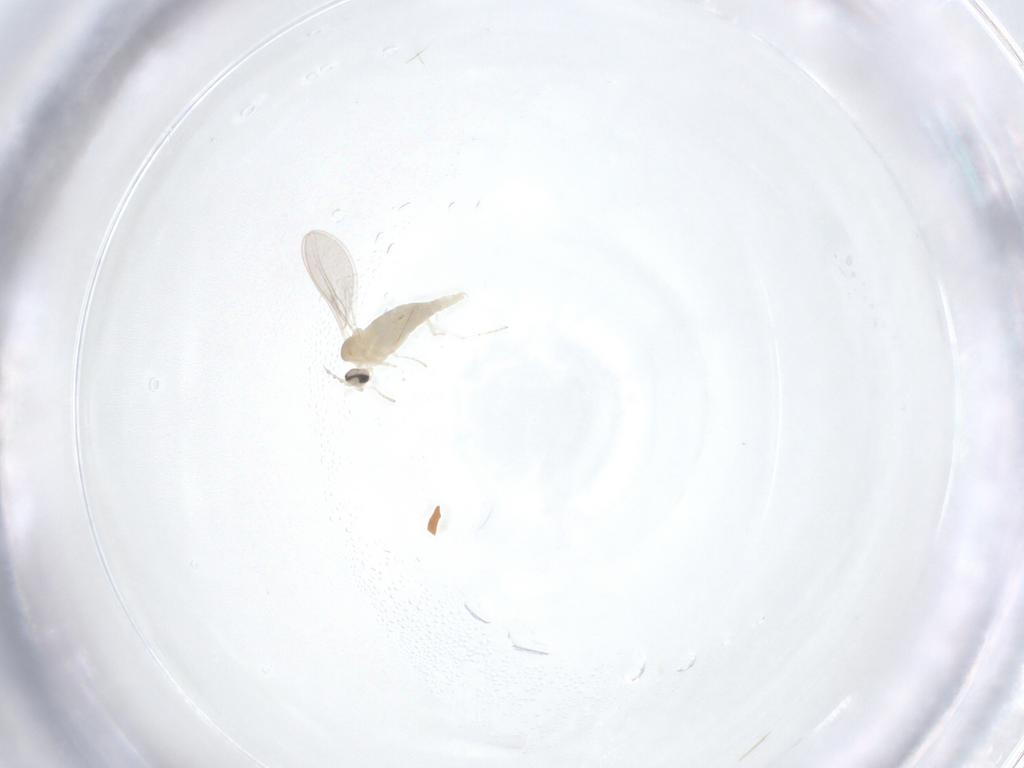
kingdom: Animalia
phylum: Arthropoda
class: Insecta
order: Diptera
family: Cecidomyiidae
